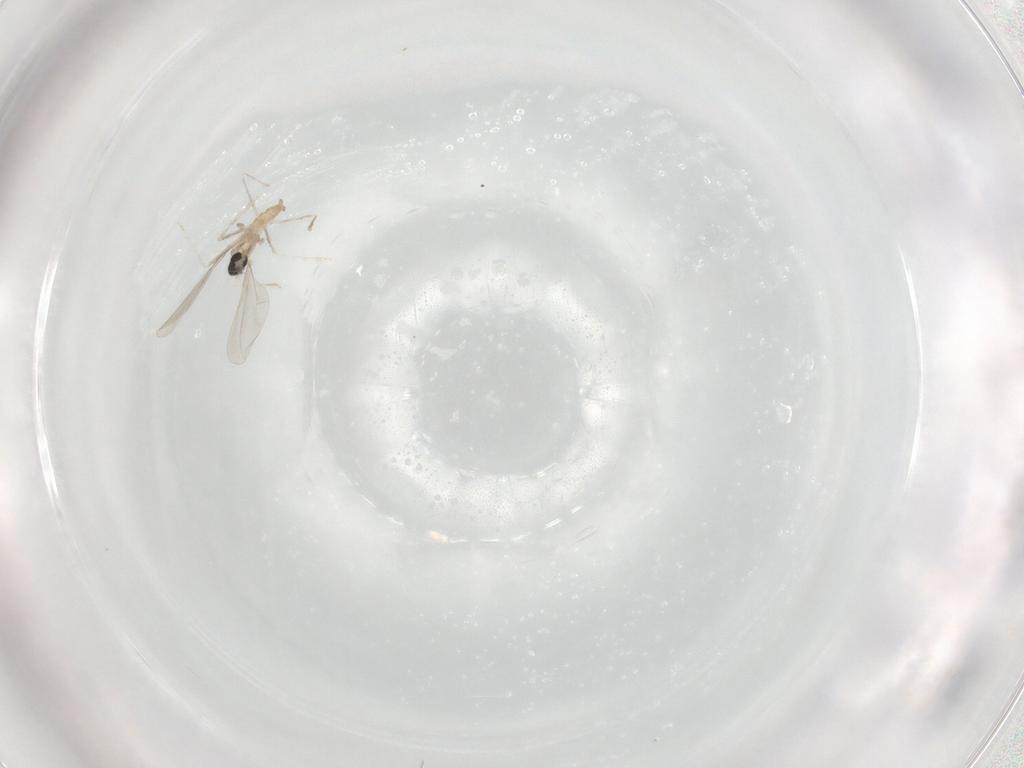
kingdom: Animalia
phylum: Arthropoda
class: Insecta
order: Diptera
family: Cecidomyiidae
